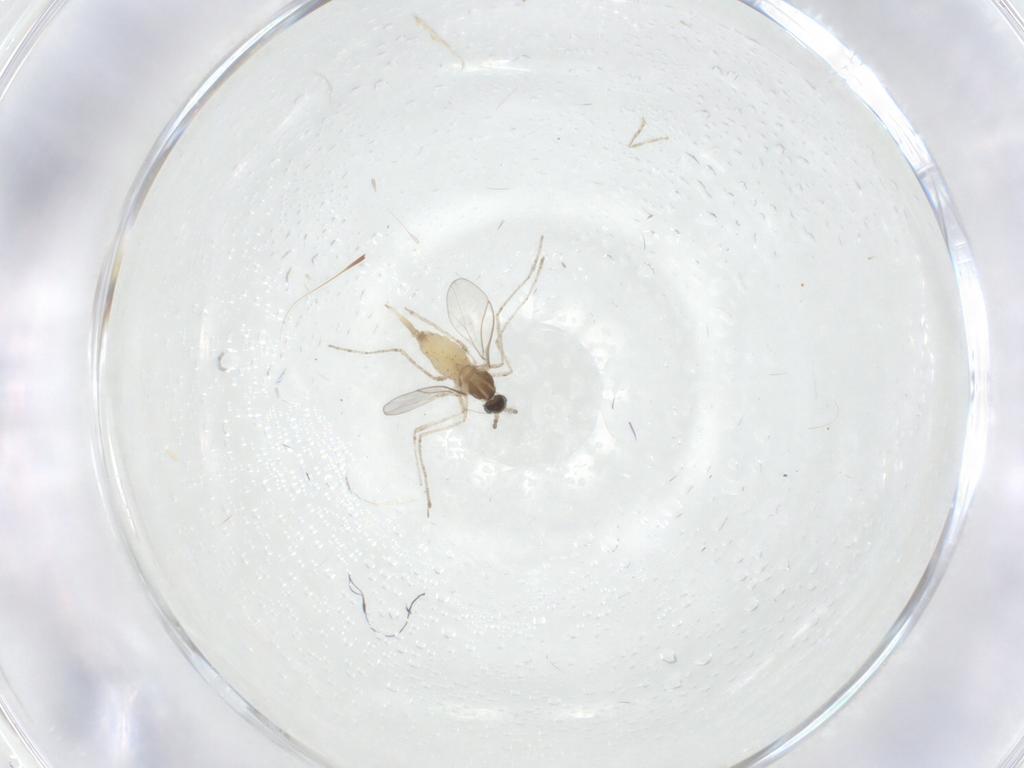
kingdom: Animalia
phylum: Arthropoda
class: Insecta
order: Diptera
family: Cecidomyiidae
